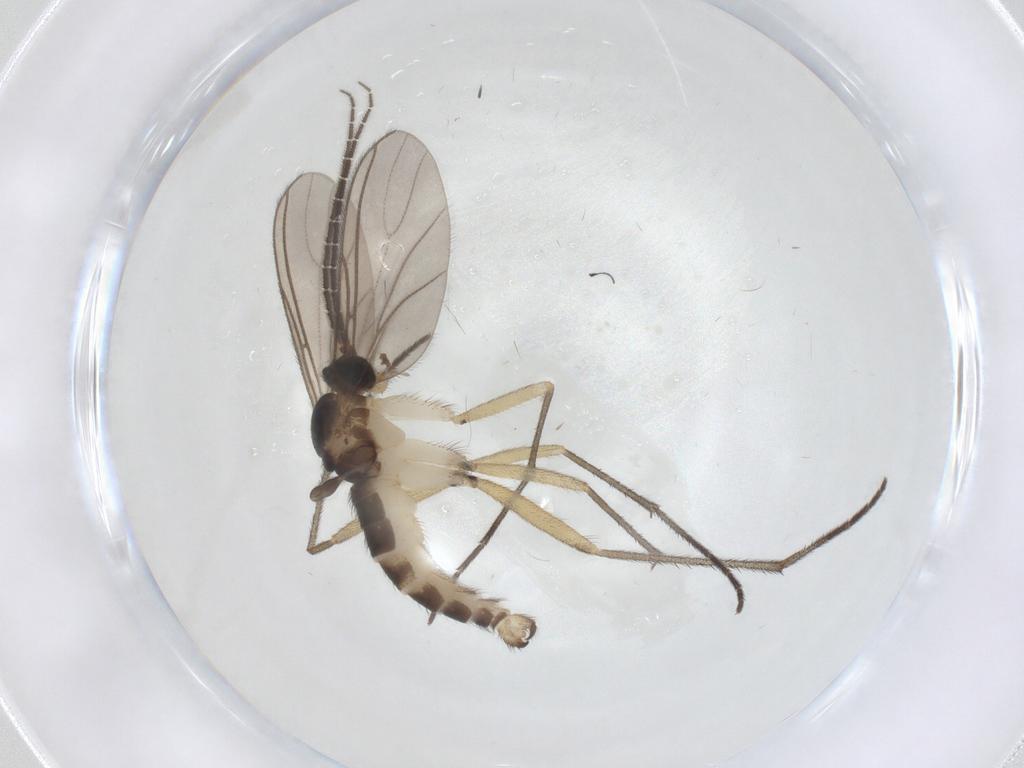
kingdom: Animalia
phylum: Arthropoda
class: Insecta
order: Diptera
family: Sciaridae
